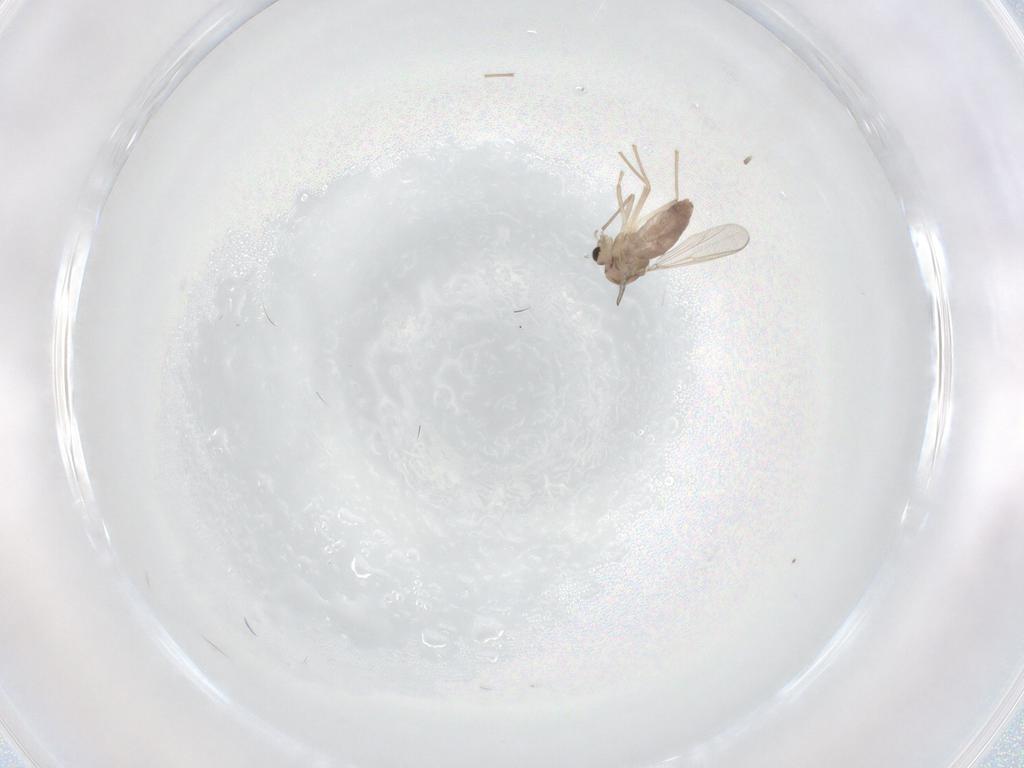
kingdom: Animalia
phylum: Arthropoda
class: Insecta
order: Diptera
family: Chironomidae
